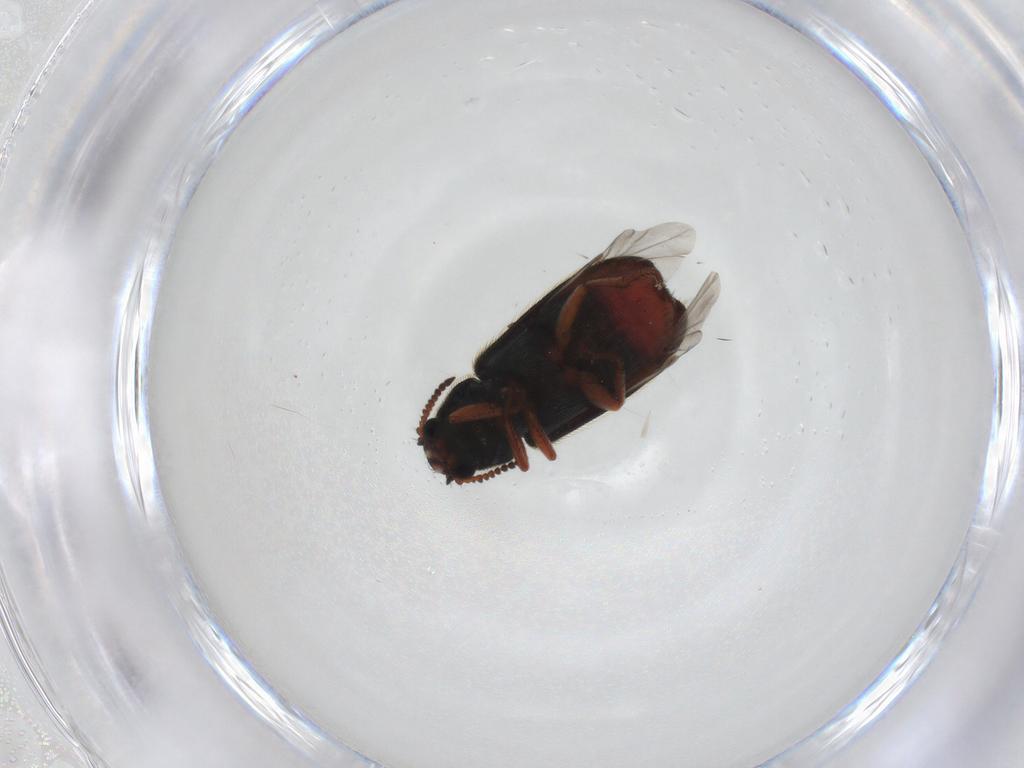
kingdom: Animalia
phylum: Arthropoda
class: Insecta
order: Coleoptera
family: Melyridae
